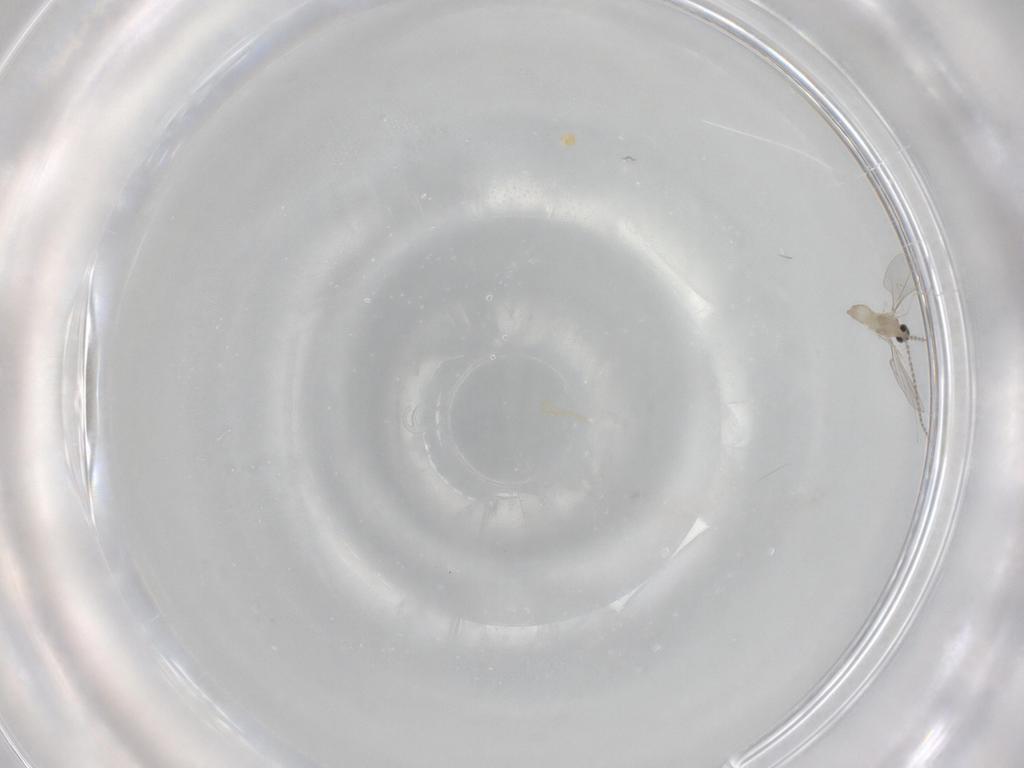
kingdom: Animalia
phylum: Arthropoda
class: Insecta
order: Diptera
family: Cecidomyiidae
